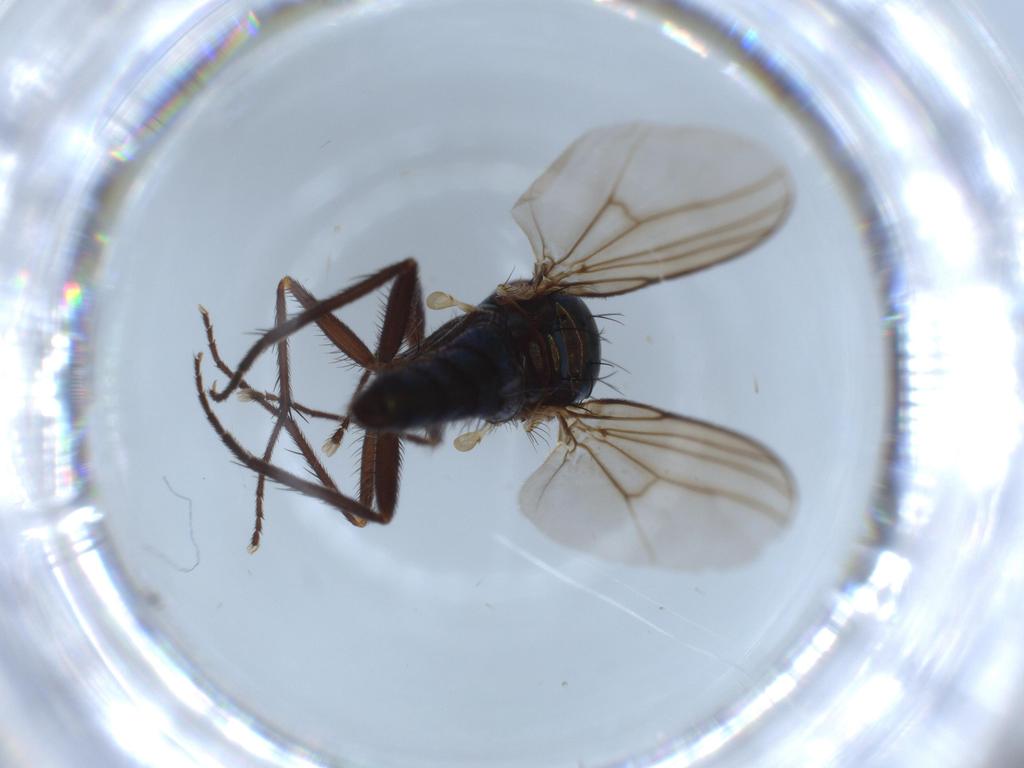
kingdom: Animalia
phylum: Arthropoda
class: Insecta
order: Diptera
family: Dolichopodidae
